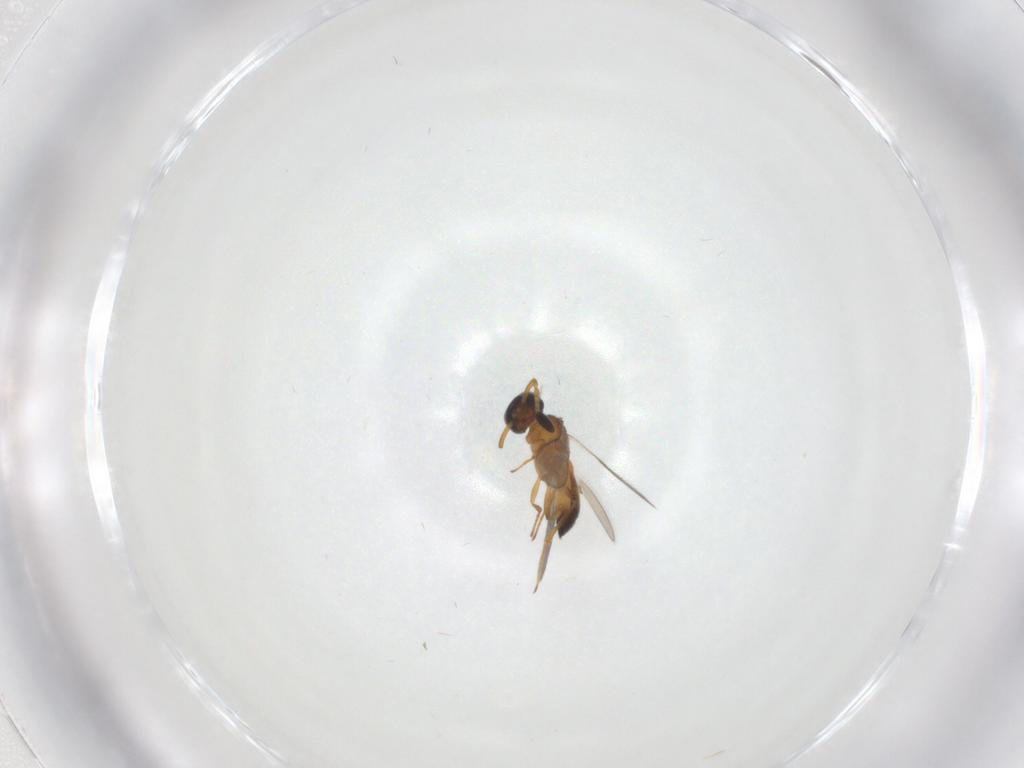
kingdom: Animalia
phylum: Arthropoda
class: Insecta
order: Hymenoptera
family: Scelionidae
